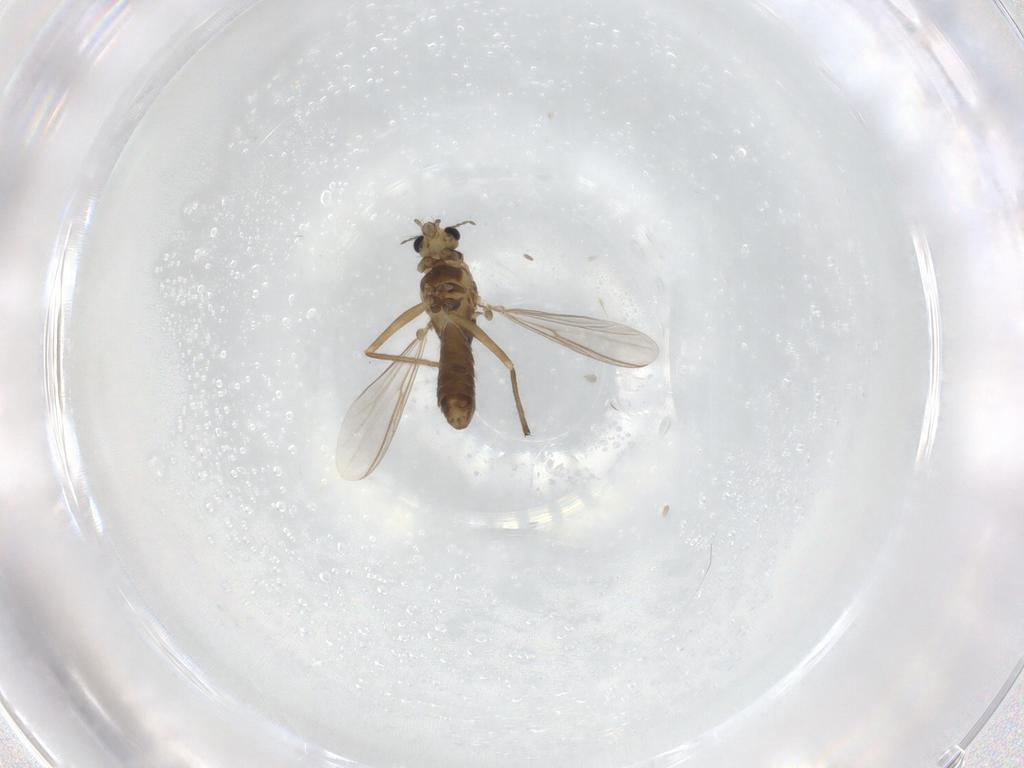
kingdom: Animalia
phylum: Arthropoda
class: Insecta
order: Diptera
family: Chironomidae
